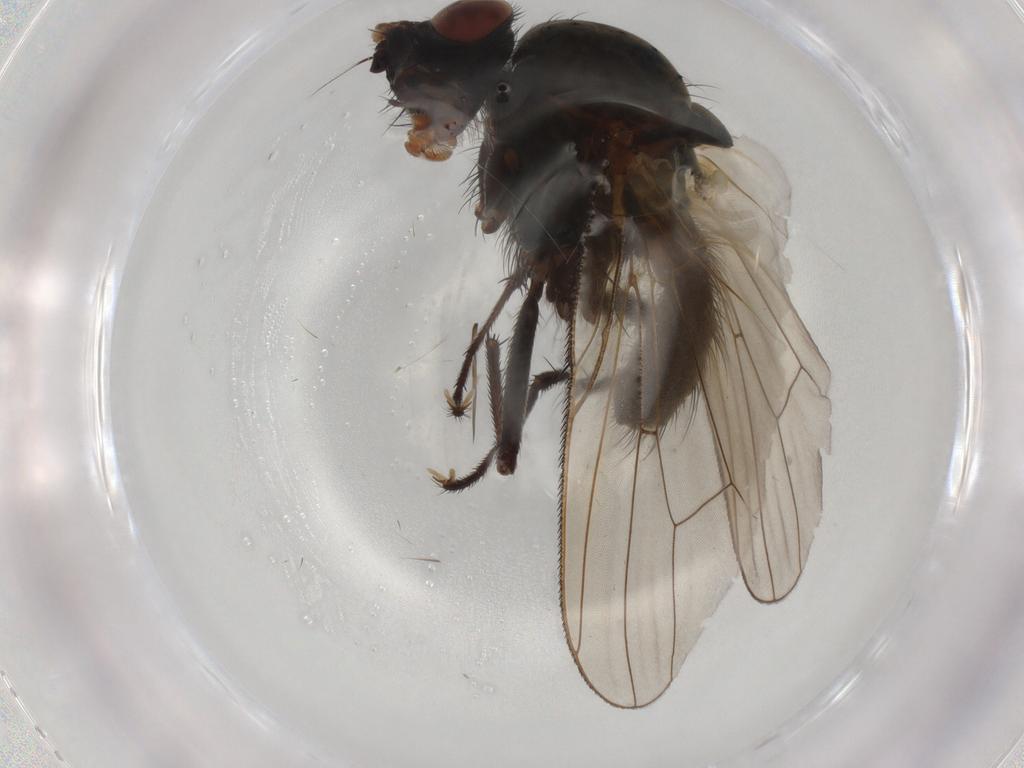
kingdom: Animalia
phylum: Arthropoda
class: Insecta
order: Diptera
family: Anthomyiidae
